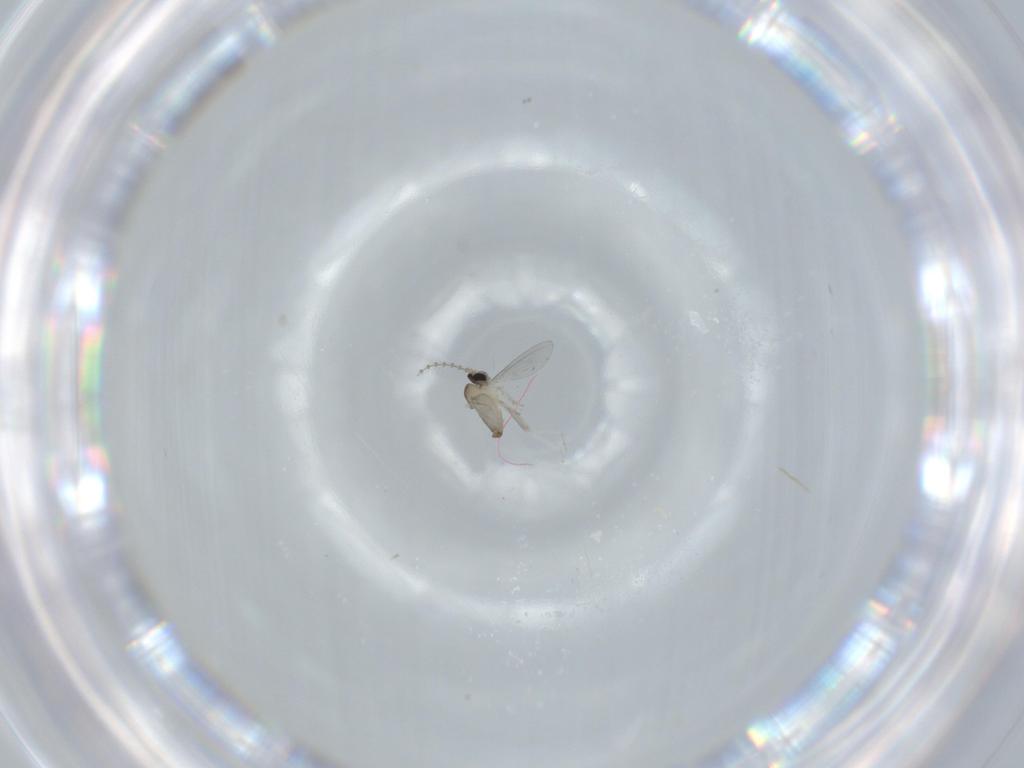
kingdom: Animalia
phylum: Arthropoda
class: Insecta
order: Diptera
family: Cecidomyiidae
